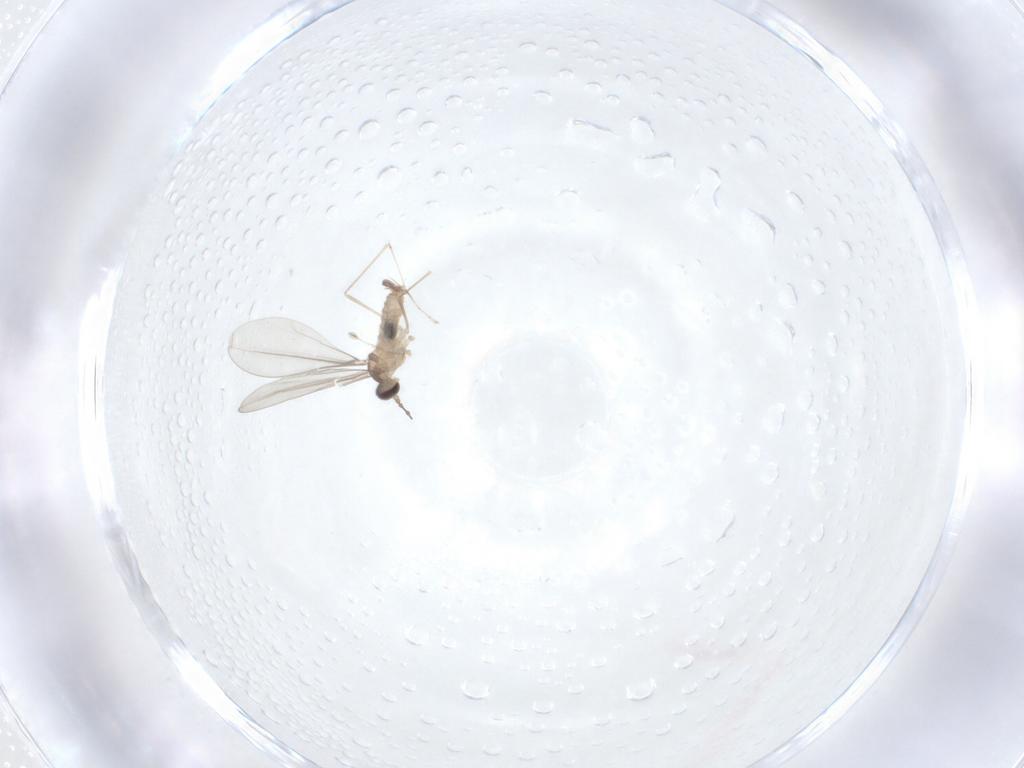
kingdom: Animalia
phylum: Arthropoda
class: Insecta
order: Diptera
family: Cecidomyiidae
